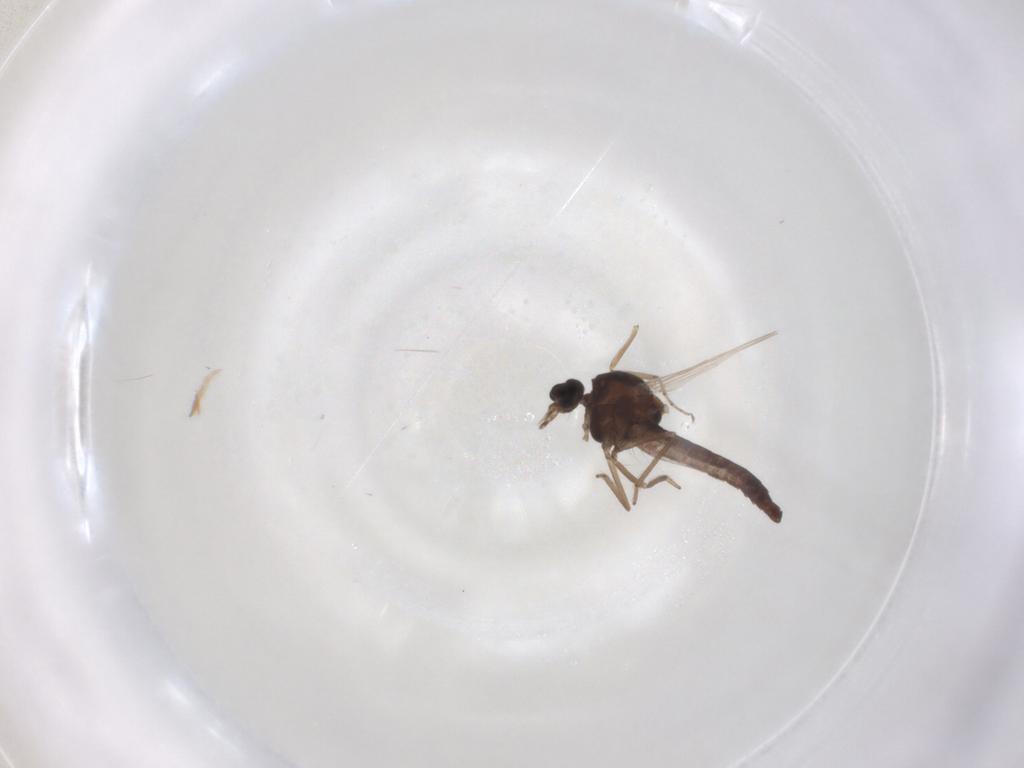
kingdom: Animalia
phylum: Arthropoda
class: Insecta
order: Diptera
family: Ceratopogonidae
